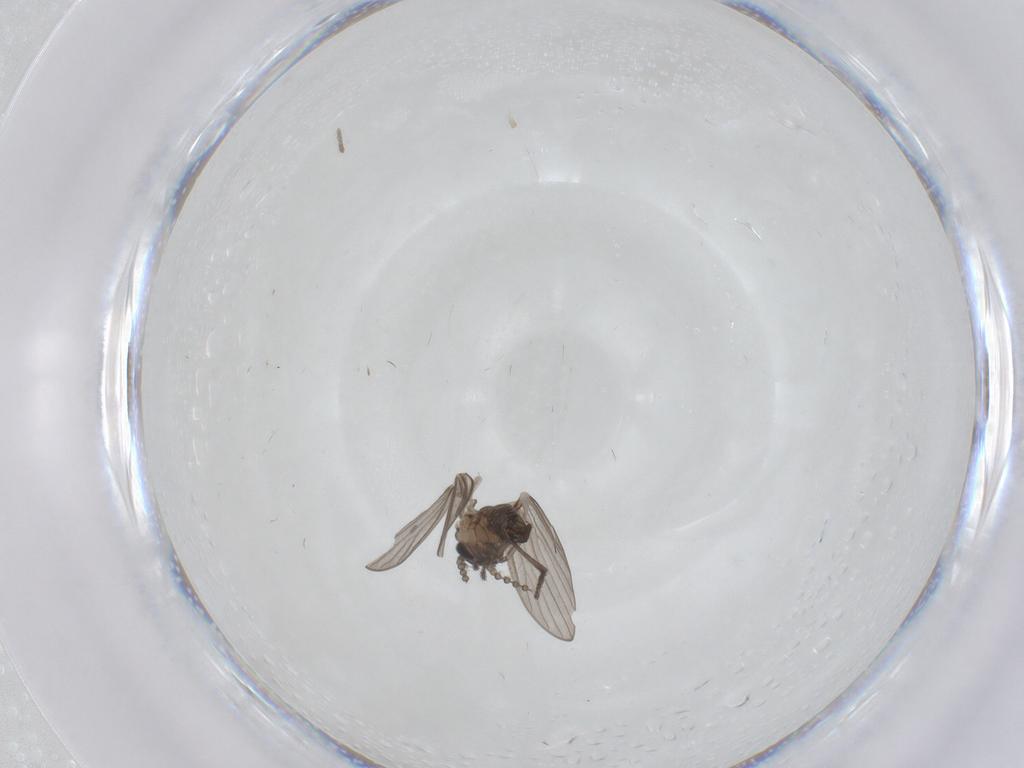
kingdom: Animalia
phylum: Arthropoda
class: Insecta
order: Diptera
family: Psychodidae
